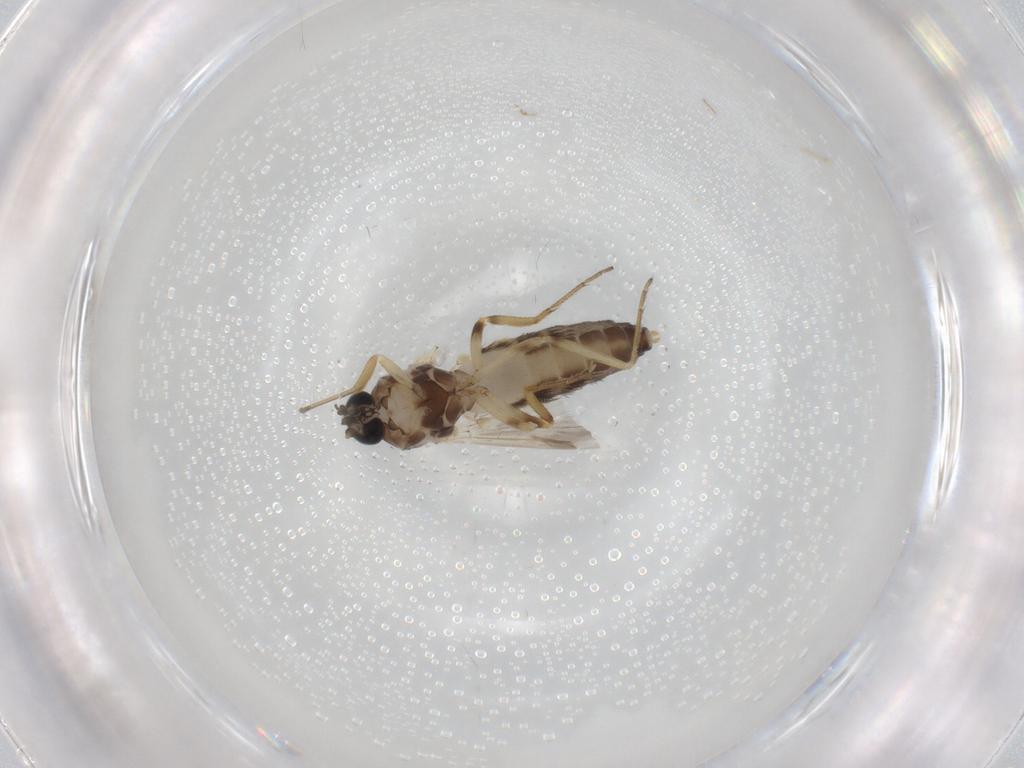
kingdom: Animalia
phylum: Arthropoda
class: Insecta
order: Diptera
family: Ceratopogonidae
